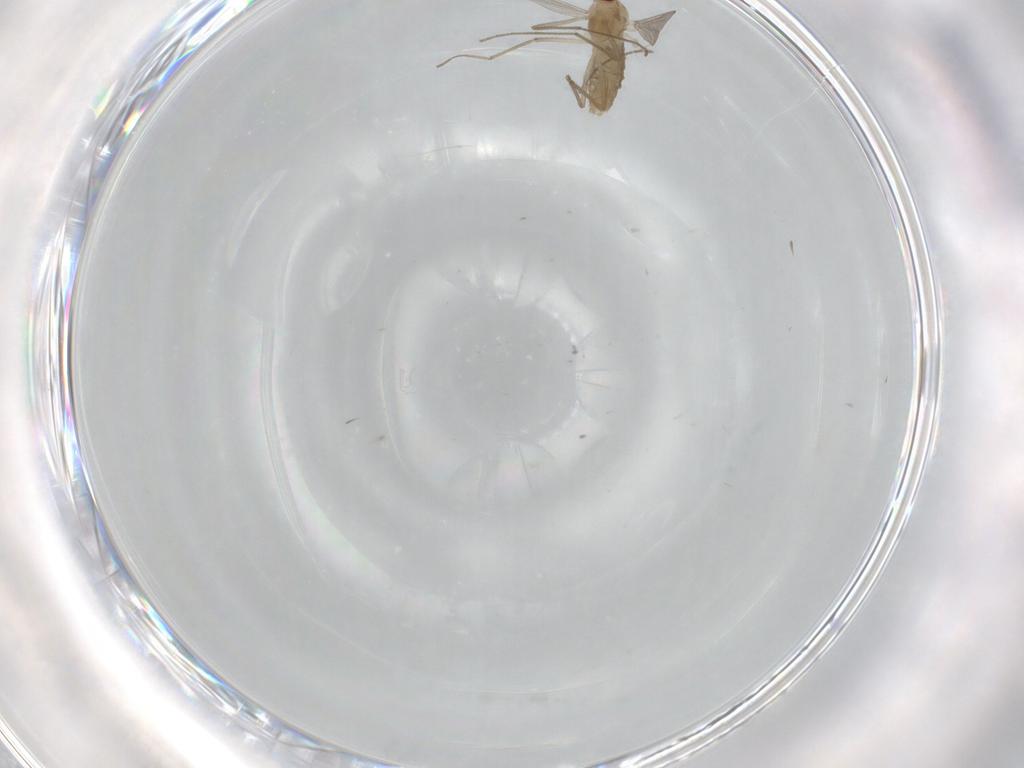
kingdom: Animalia
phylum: Arthropoda
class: Insecta
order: Diptera
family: Chironomidae
